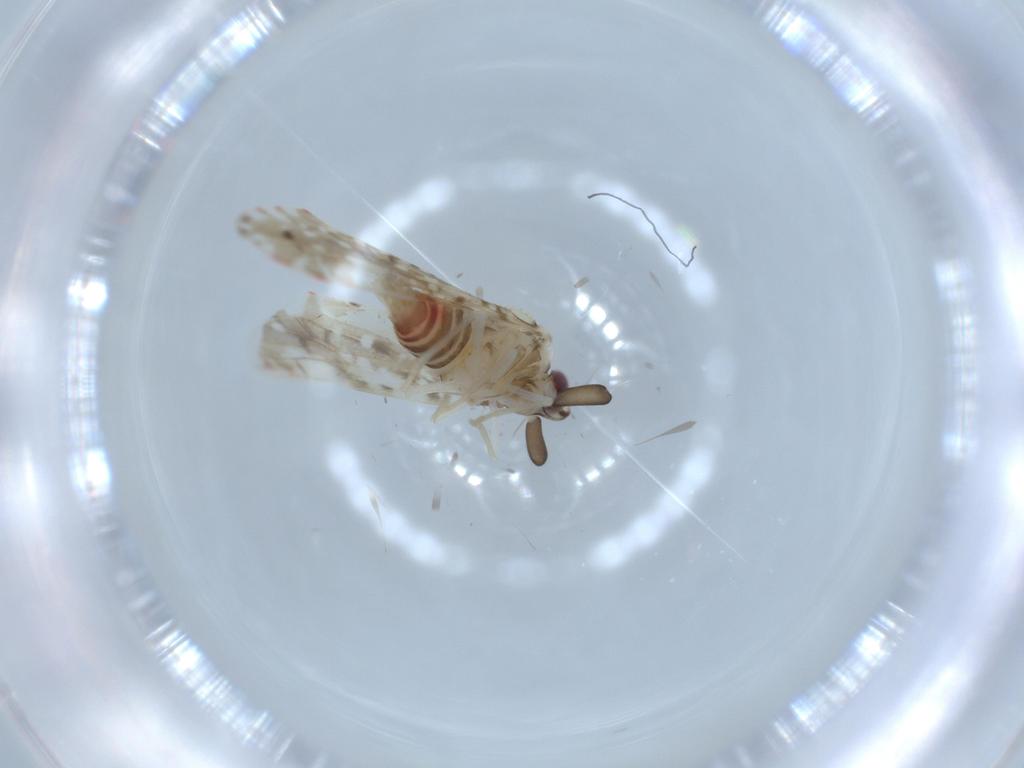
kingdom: Animalia
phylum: Arthropoda
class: Insecta
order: Hemiptera
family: Derbidae
